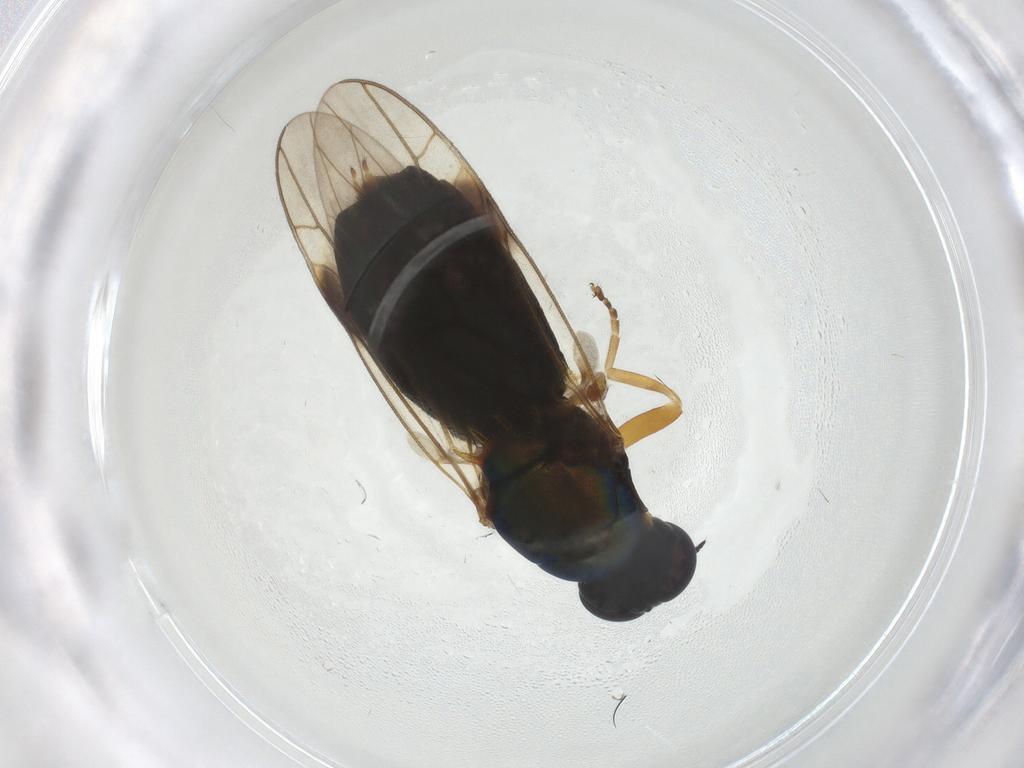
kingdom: Animalia
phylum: Arthropoda
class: Insecta
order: Diptera
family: Stratiomyidae
